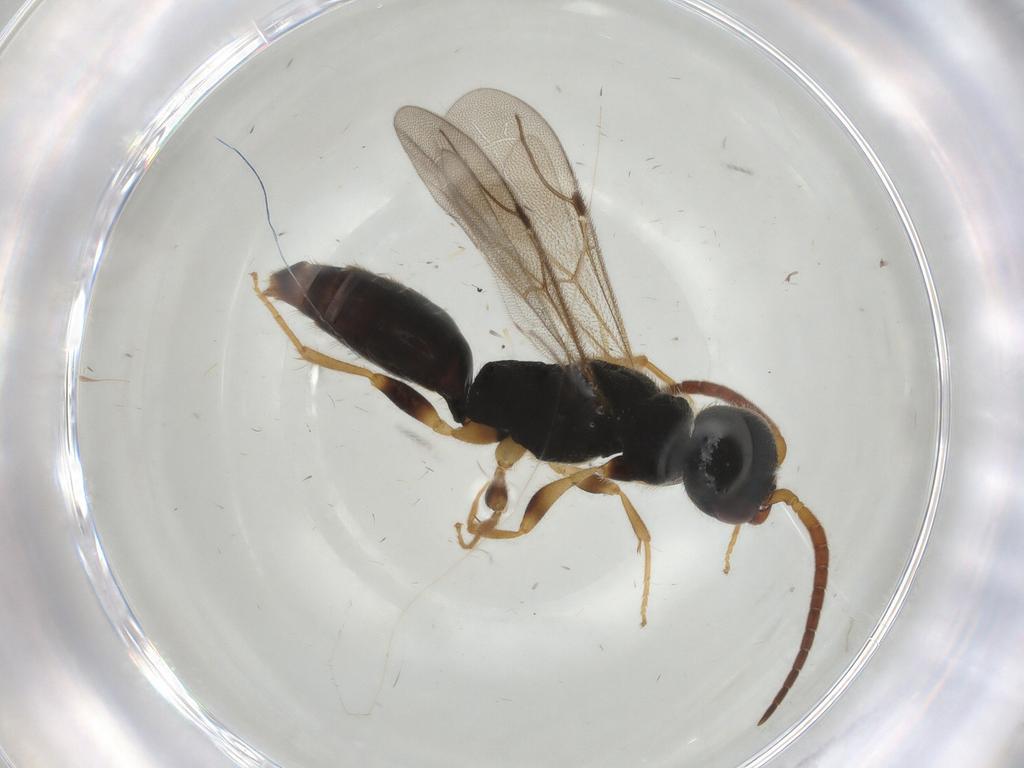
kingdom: Animalia
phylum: Arthropoda
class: Insecta
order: Hymenoptera
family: Bethylidae
